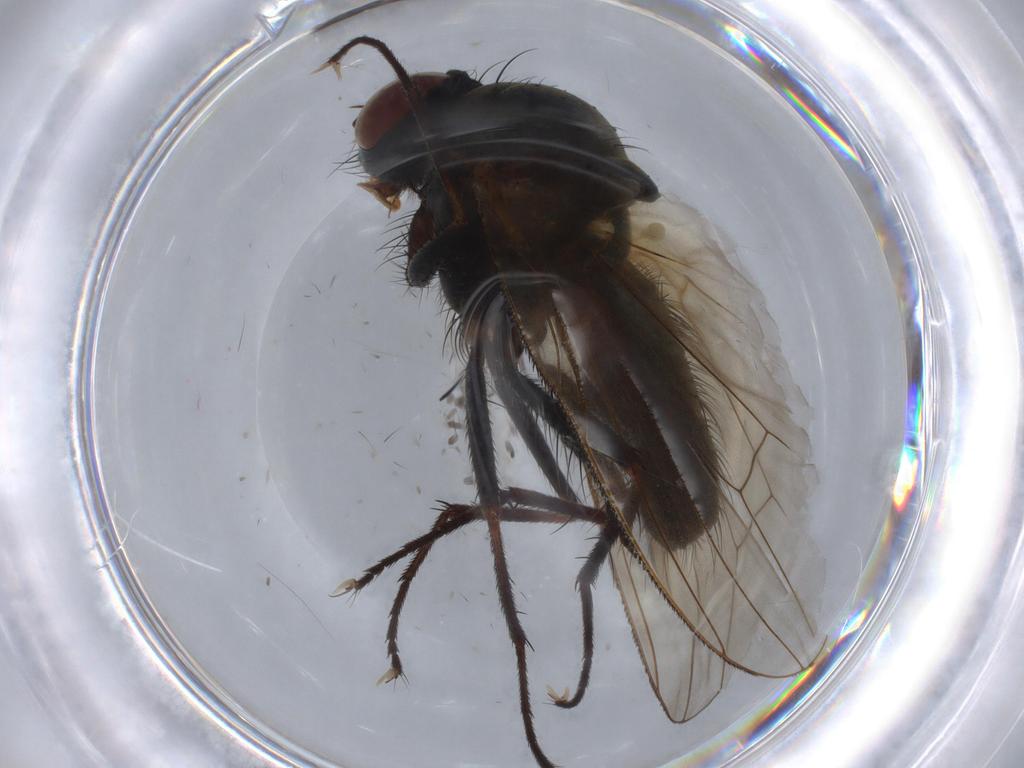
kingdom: Animalia
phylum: Arthropoda
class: Insecta
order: Diptera
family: Anthomyiidae
